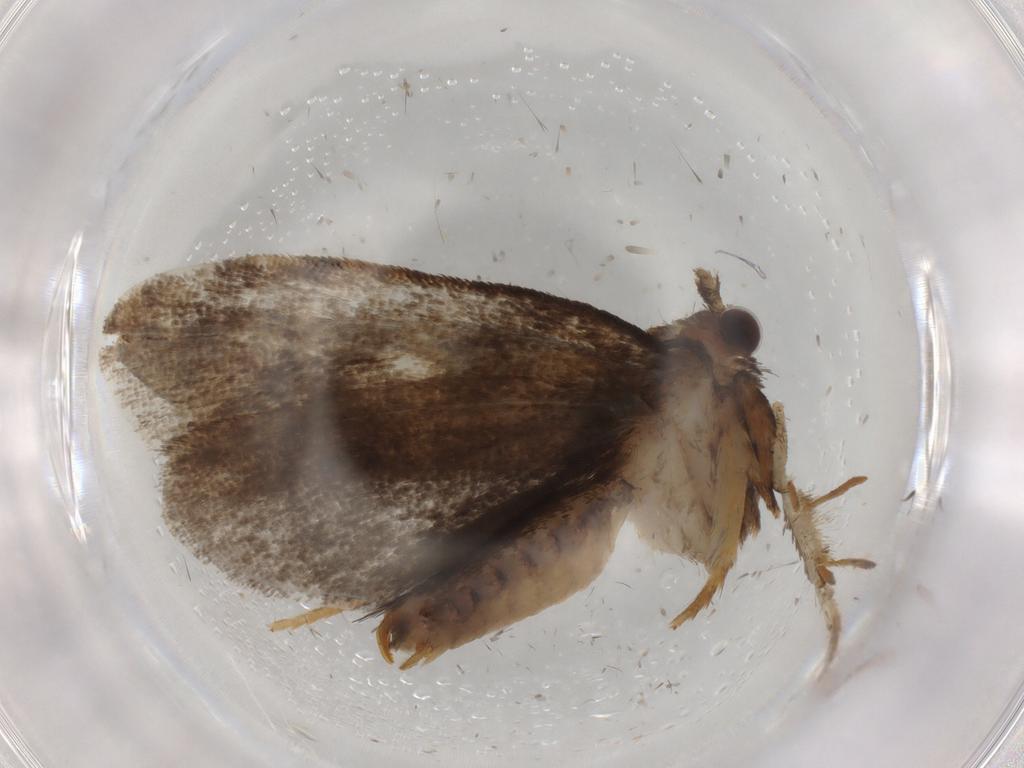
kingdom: Animalia
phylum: Arthropoda
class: Insecta
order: Lepidoptera
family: Tineidae
